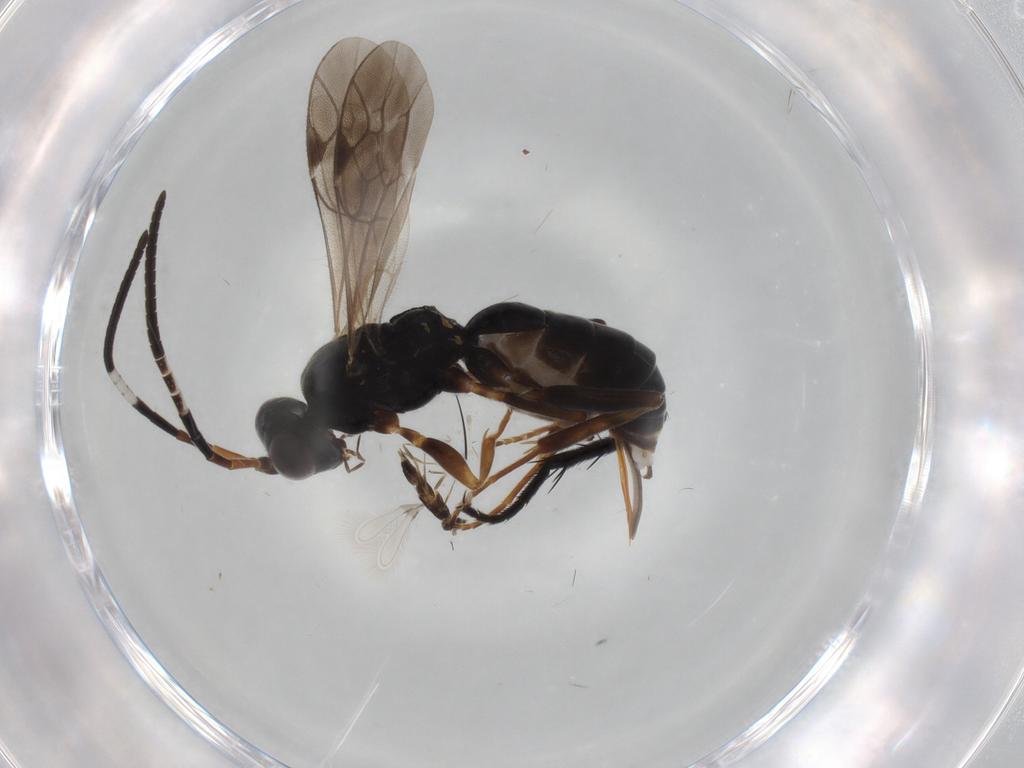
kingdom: Animalia
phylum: Arthropoda
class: Insecta
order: Hymenoptera
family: Ichneumonidae
